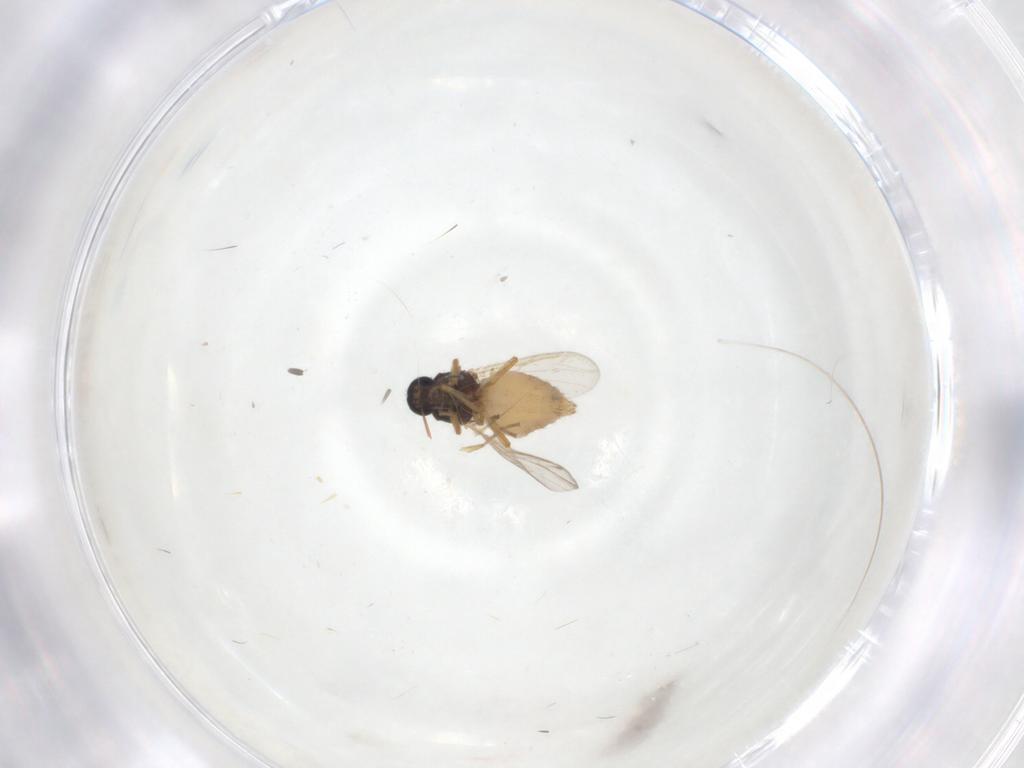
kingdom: Animalia
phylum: Arthropoda
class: Insecta
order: Diptera
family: Ceratopogonidae
